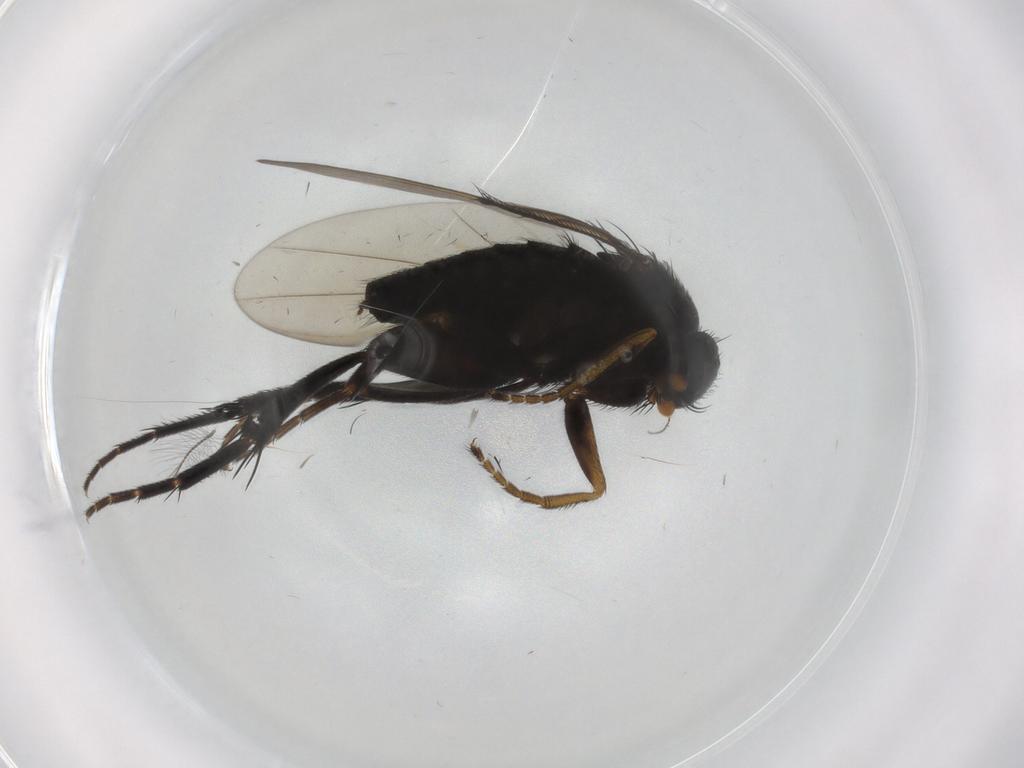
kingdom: Animalia
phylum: Arthropoda
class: Insecta
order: Diptera
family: Phoridae
